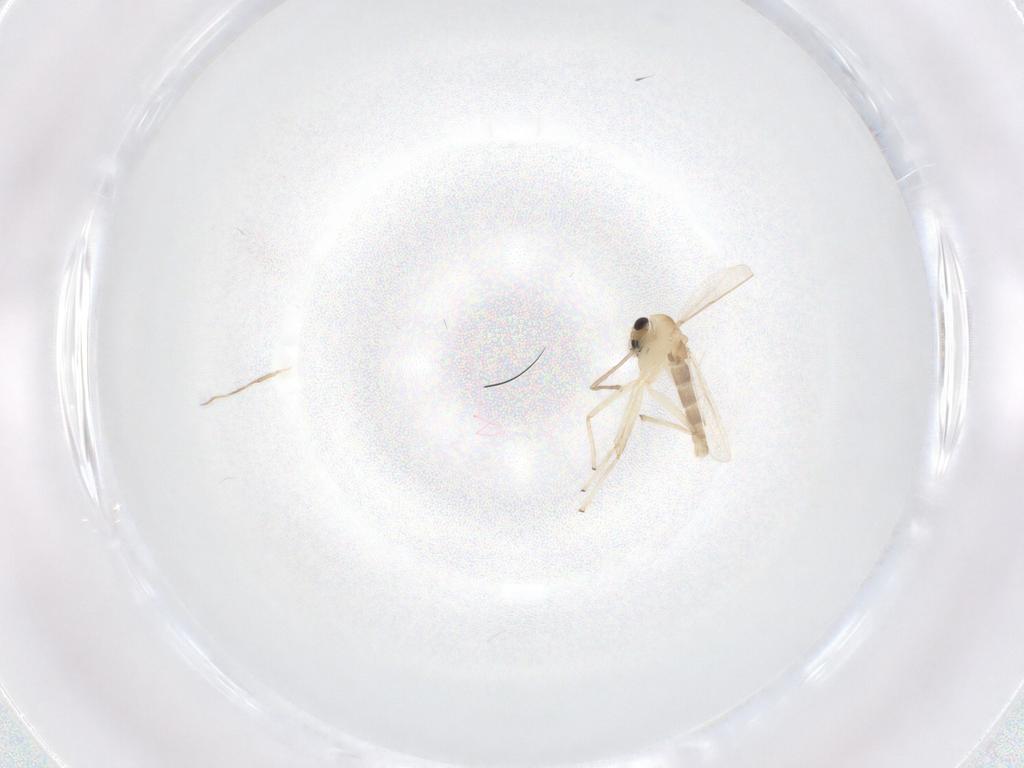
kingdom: Animalia
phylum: Arthropoda
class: Insecta
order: Diptera
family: Chironomidae
